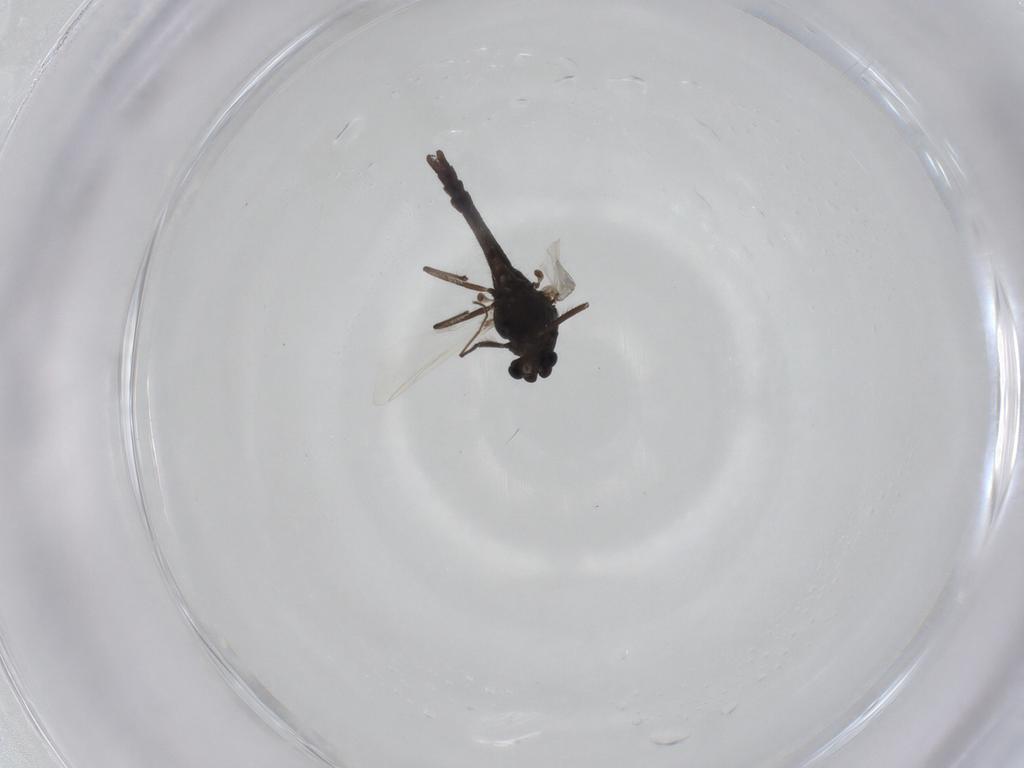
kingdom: Animalia
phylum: Arthropoda
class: Insecta
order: Diptera
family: Chironomidae
